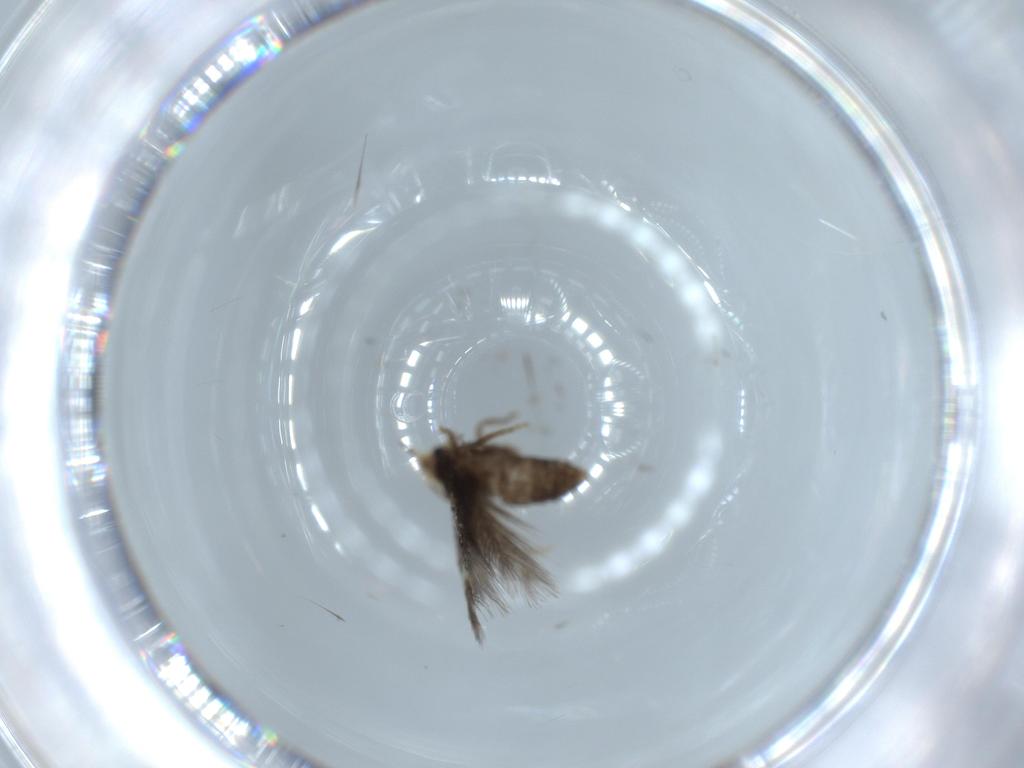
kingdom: Animalia
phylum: Arthropoda
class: Insecta
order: Lepidoptera
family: Nepticulidae
